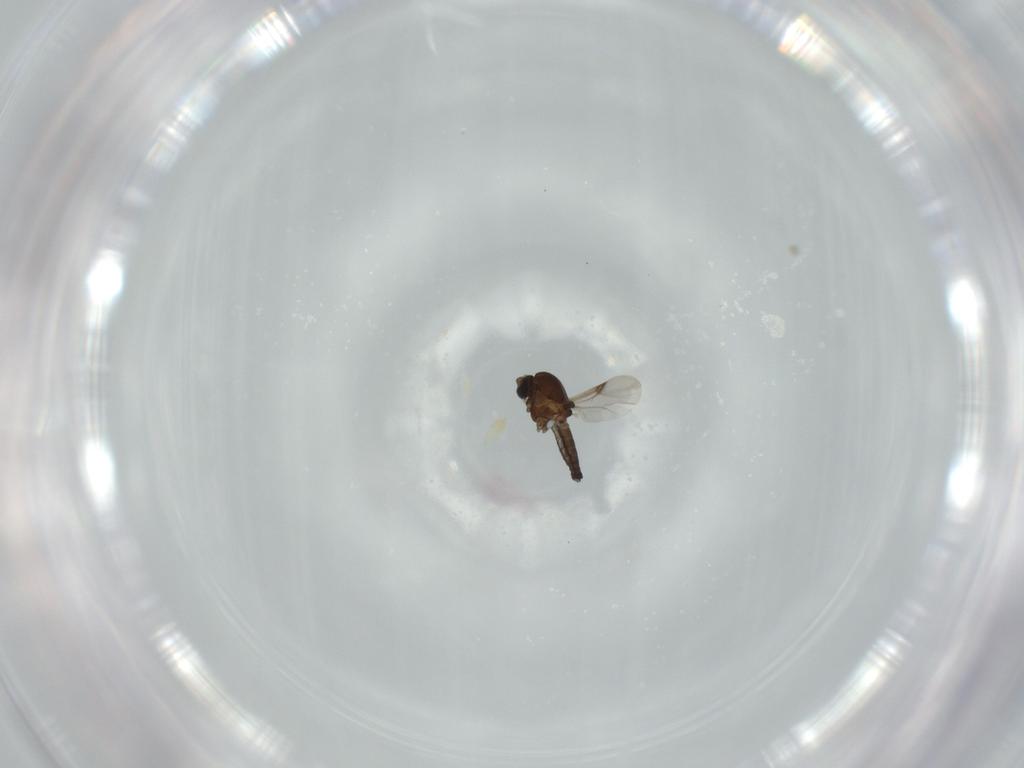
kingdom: Animalia
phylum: Arthropoda
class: Insecta
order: Diptera
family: Ceratopogonidae
